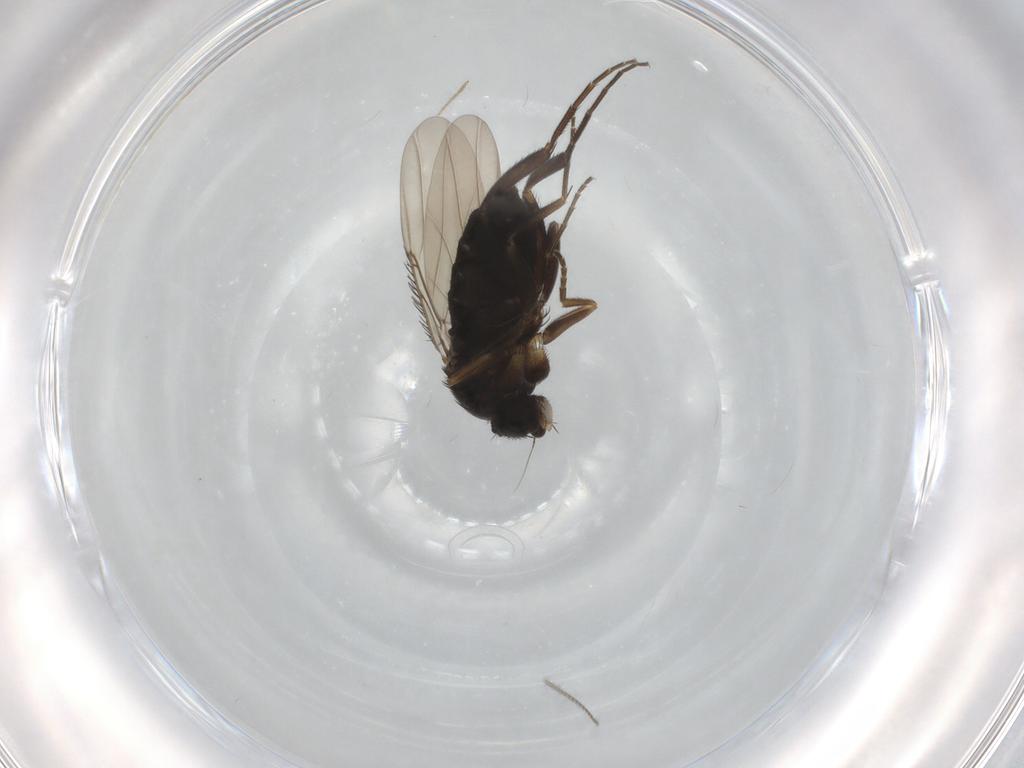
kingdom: Animalia
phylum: Arthropoda
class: Insecta
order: Diptera
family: Phoridae
